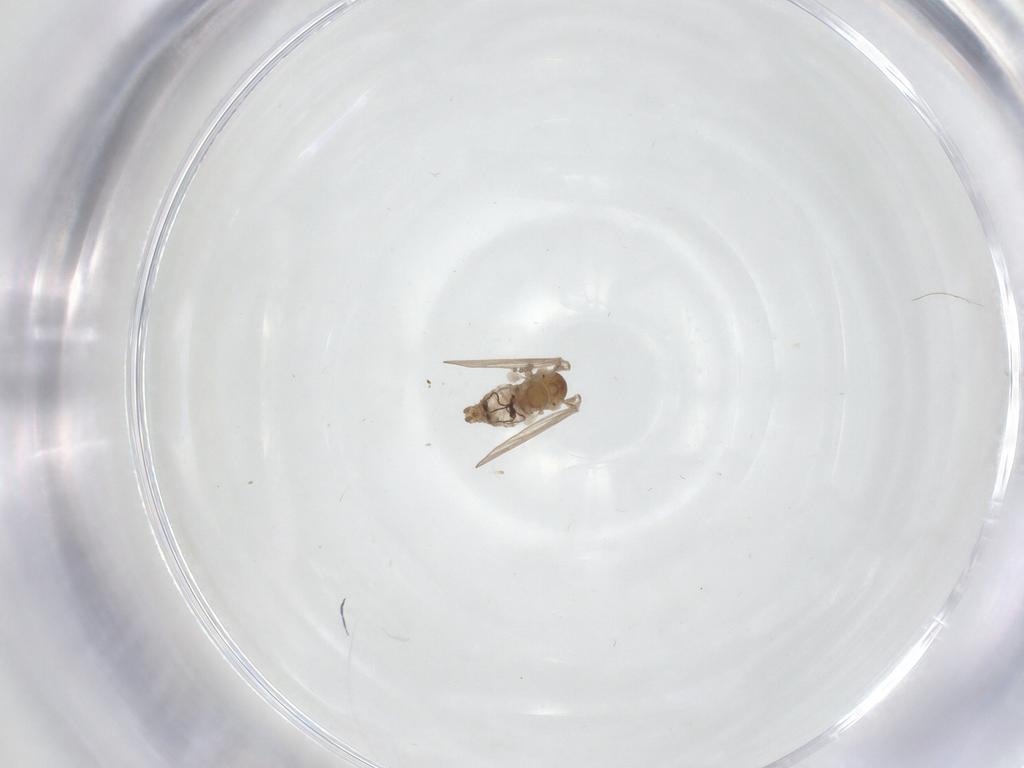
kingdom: Animalia
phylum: Arthropoda
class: Insecta
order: Diptera
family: Psychodidae
